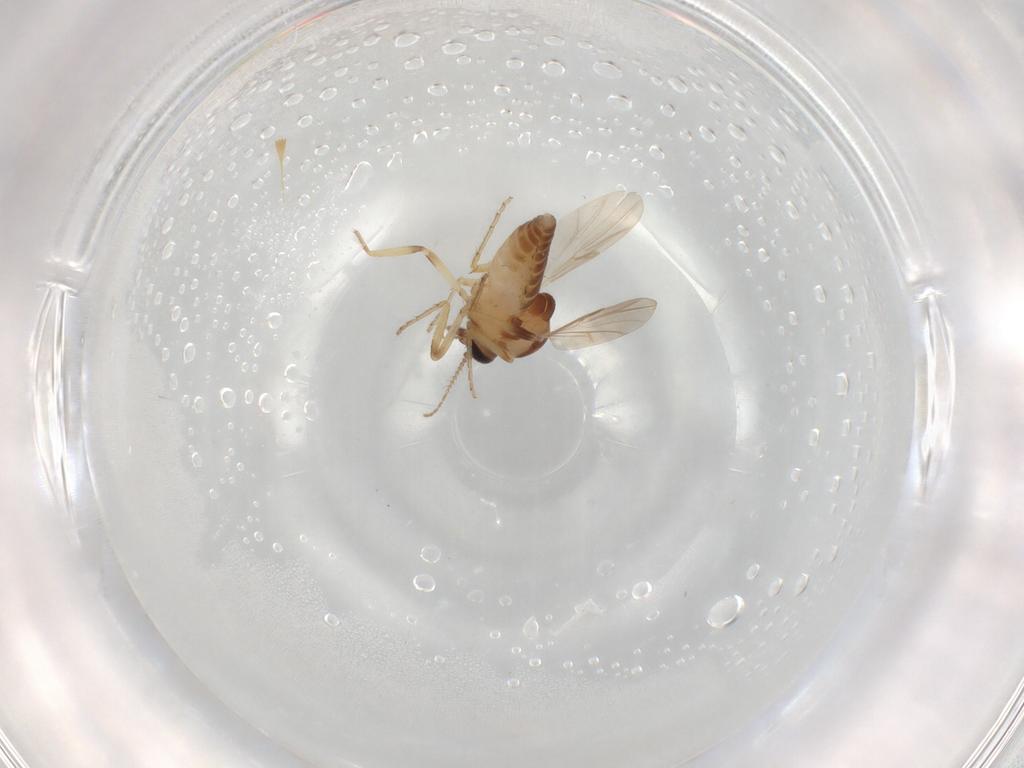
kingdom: Animalia
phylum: Arthropoda
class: Insecta
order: Diptera
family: Ceratopogonidae
